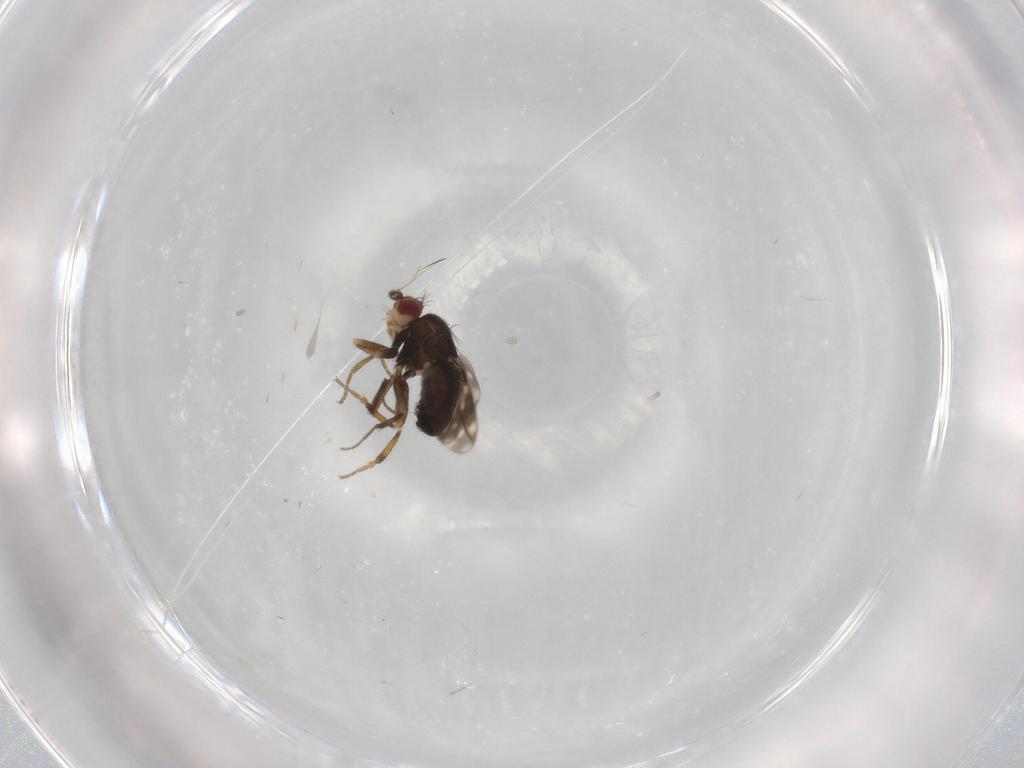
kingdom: Animalia
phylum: Arthropoda
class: Insecta
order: Diptera
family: Sphaeroceridae
